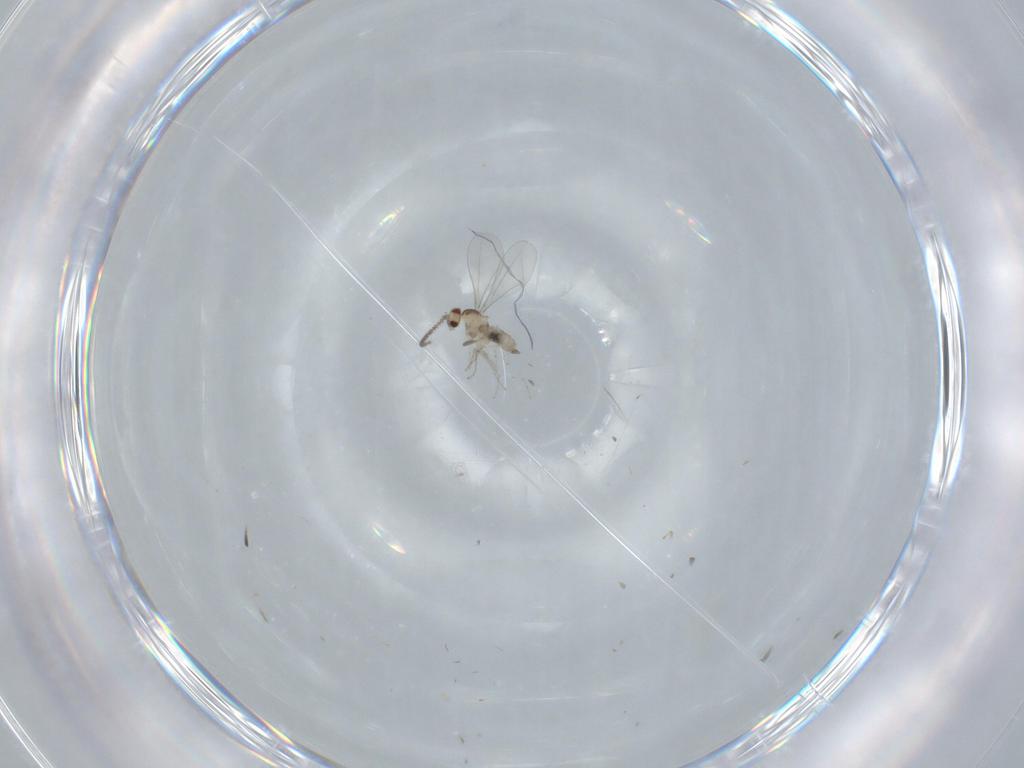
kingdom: Animalia
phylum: Arthropoda
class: Insecta
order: Diptera
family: Cecidomyiidae
